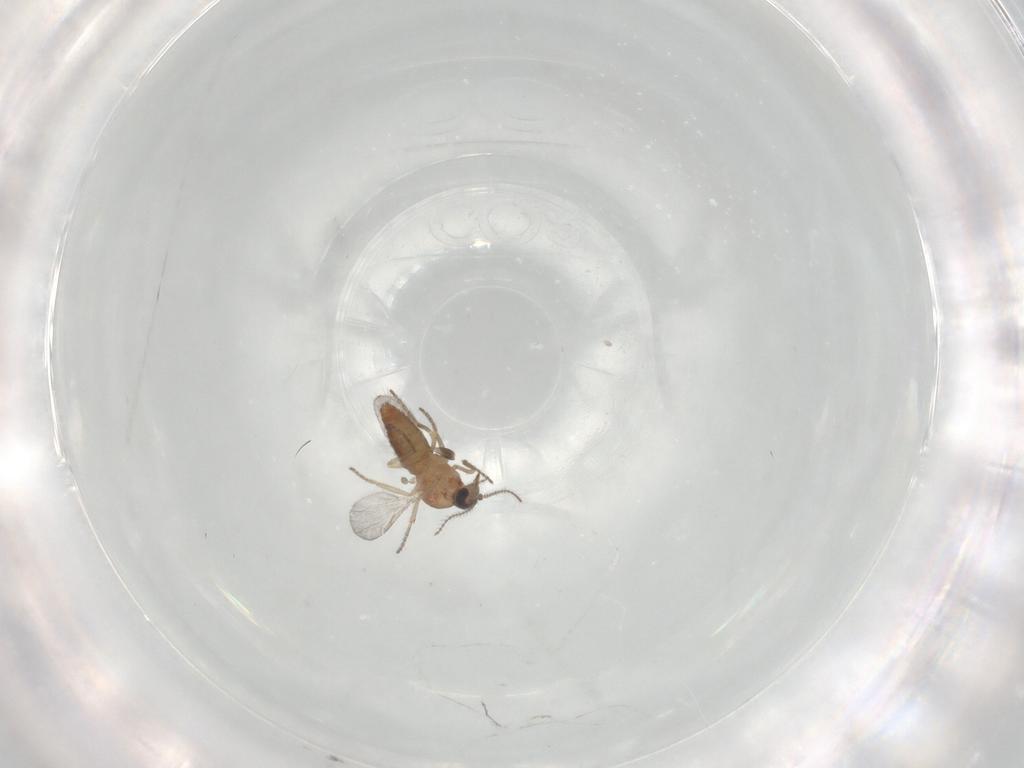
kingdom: Animalia
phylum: Arthropoda
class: Insecta
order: Diptera
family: Ceratopogonidae
